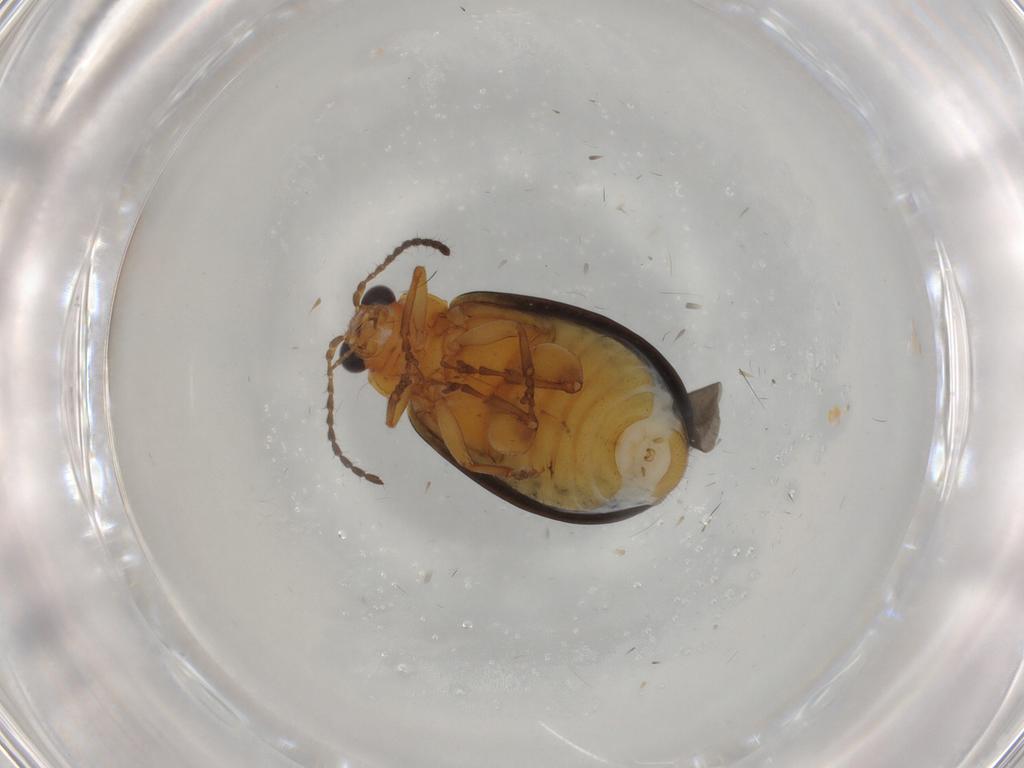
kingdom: Animalia
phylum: Arthropoda
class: Insecta
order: Coleoptera
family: Chrysomelidae
